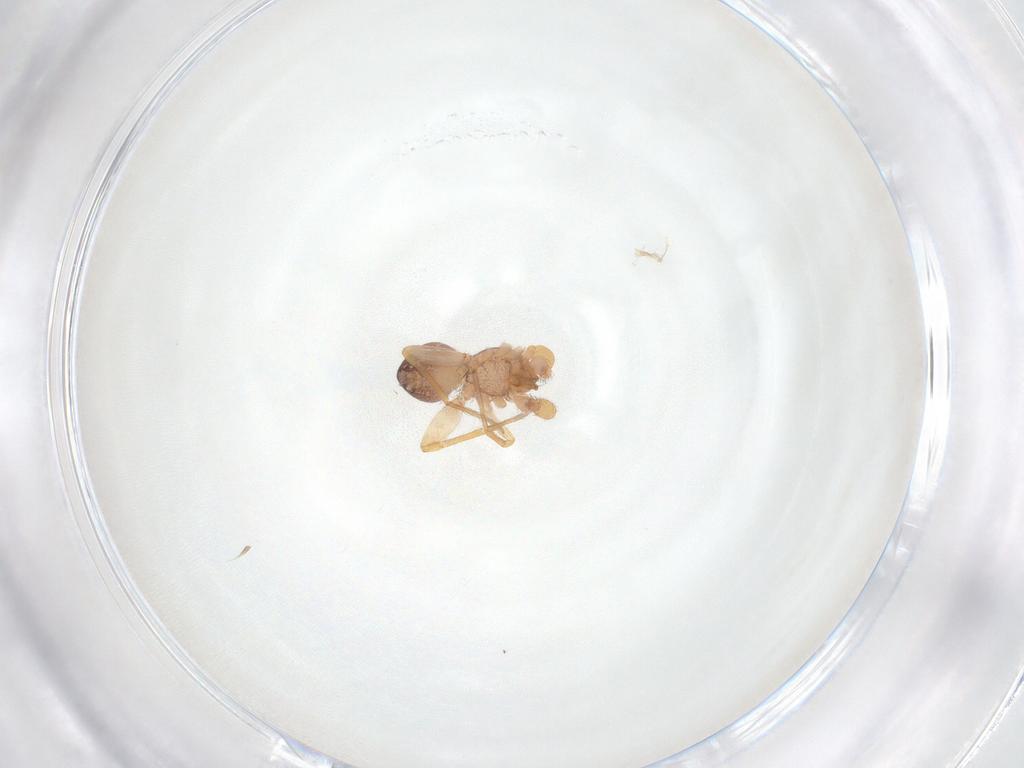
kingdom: Animalia
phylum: Arthropoda
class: Arachnida
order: Araneae
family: Idiopidae
